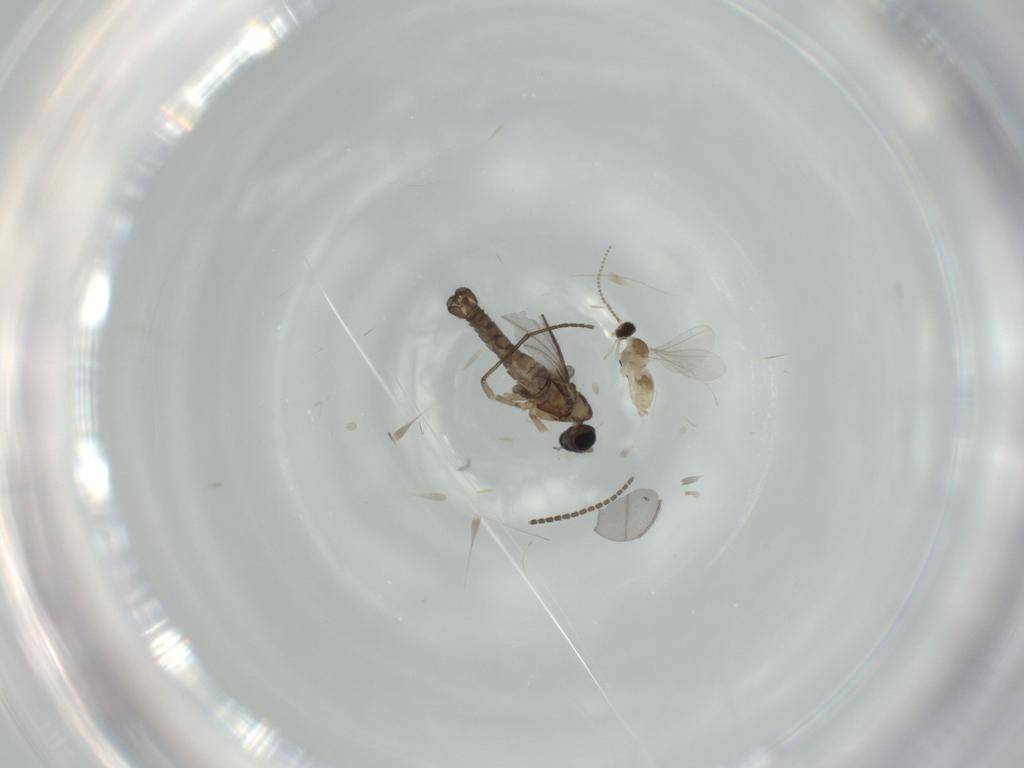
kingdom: Animalia
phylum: Arthropoda
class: Insecta
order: Diptera
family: Sciaridae
